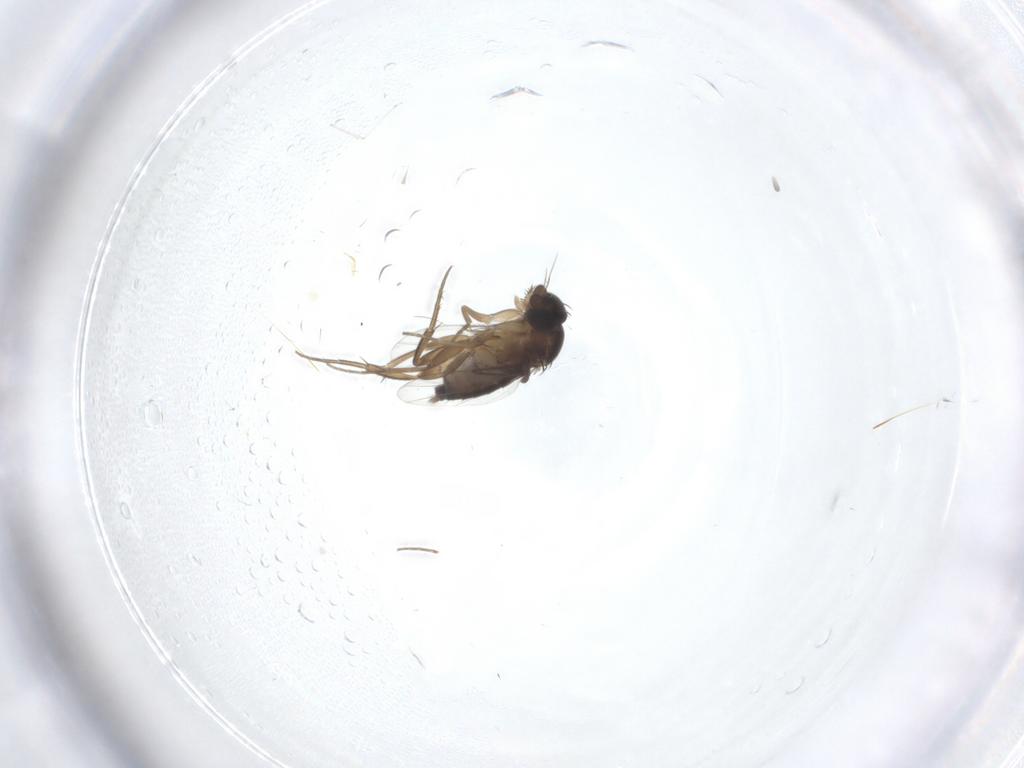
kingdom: Animalia
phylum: Arthropoda
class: Insecta
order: Diptera
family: Phoridae
